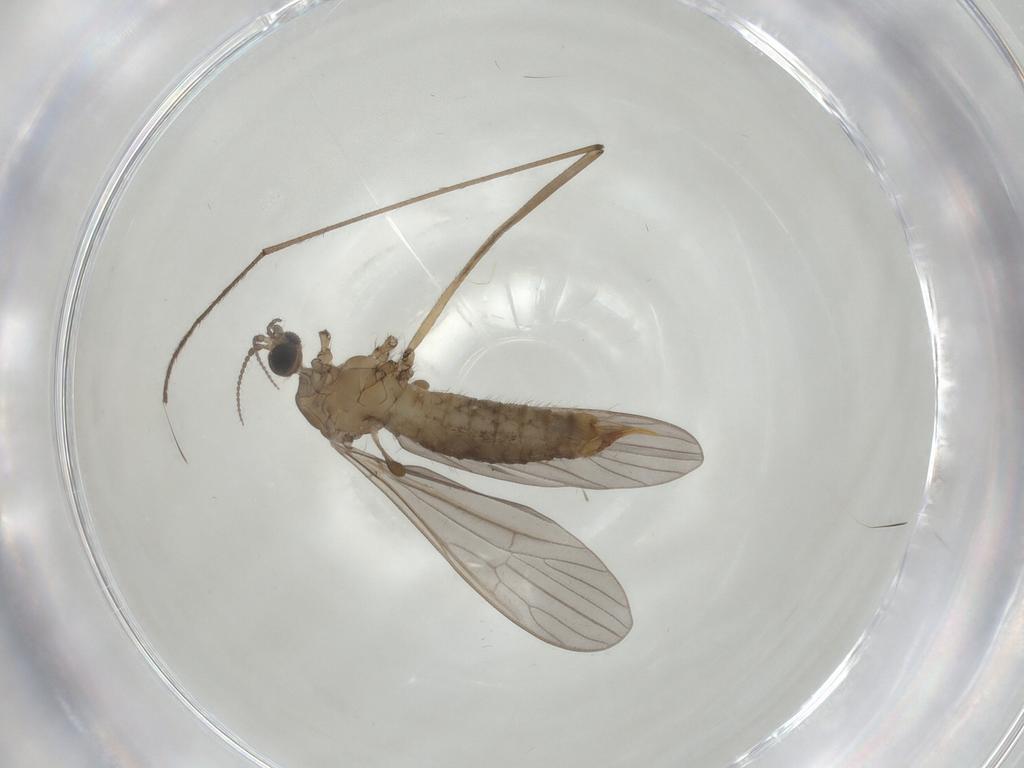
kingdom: Animalia
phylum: Arthropoda
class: Insecta
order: Diptera
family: Limoniidae
